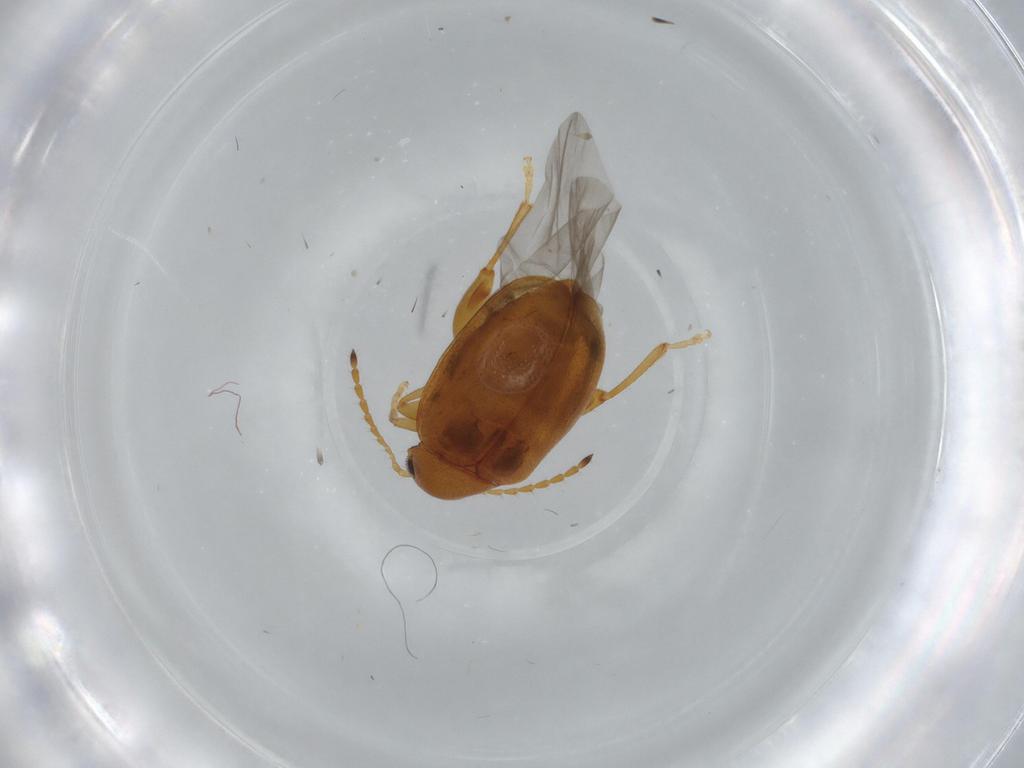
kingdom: Animalia
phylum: Arthropoda
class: Insecta
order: Coleoptera
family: Chrysomelidae
